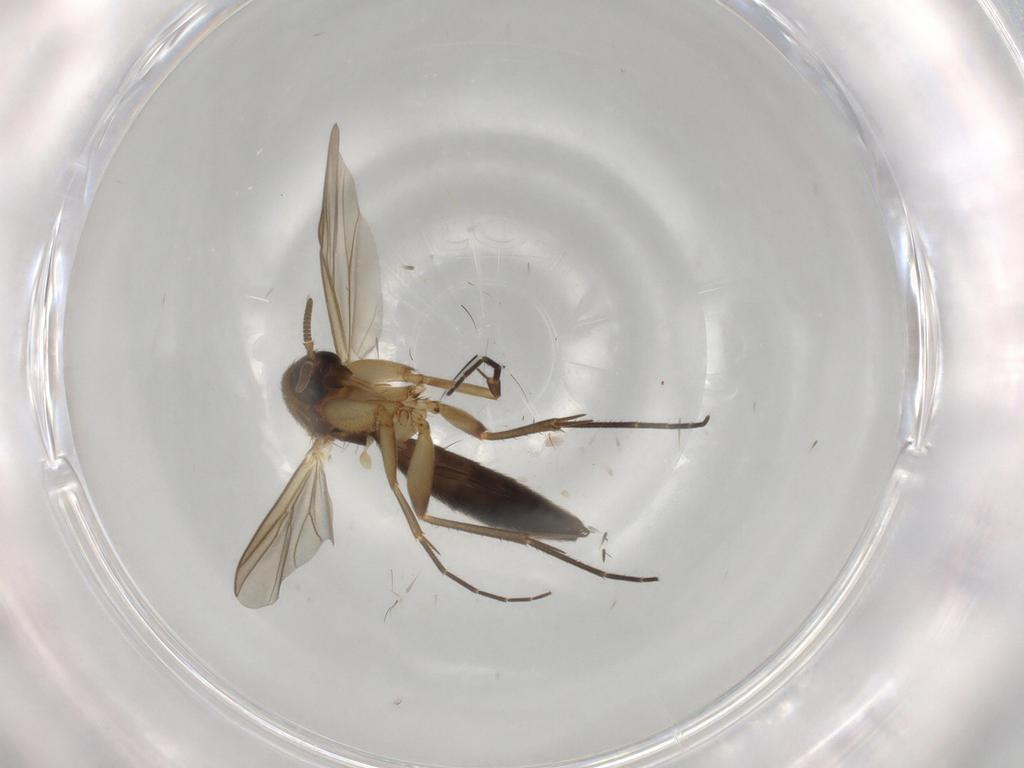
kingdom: Animalia
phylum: Arthropoda
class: Insecta
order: Diptera
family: Mycetophilidae
